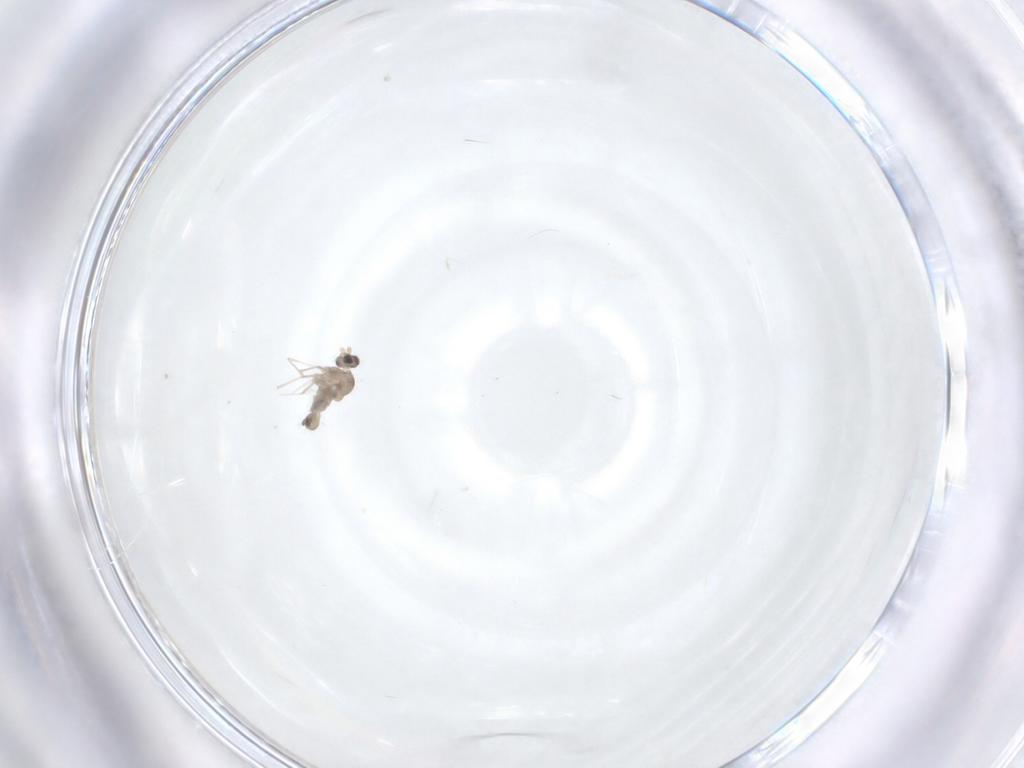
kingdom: Animalia
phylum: Arthropoda
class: Insecta
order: Diptera
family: Cecidomyiidae
